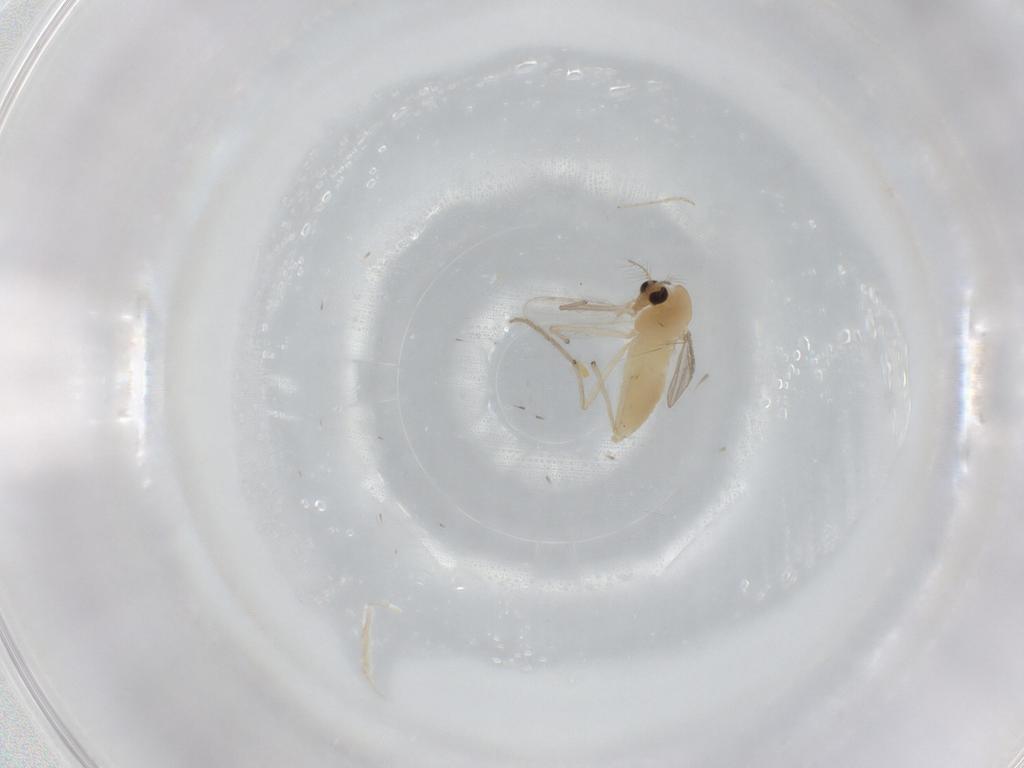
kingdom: Animalia
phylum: Arthropoda
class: Insecta
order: Diptera
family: Chironomidae
